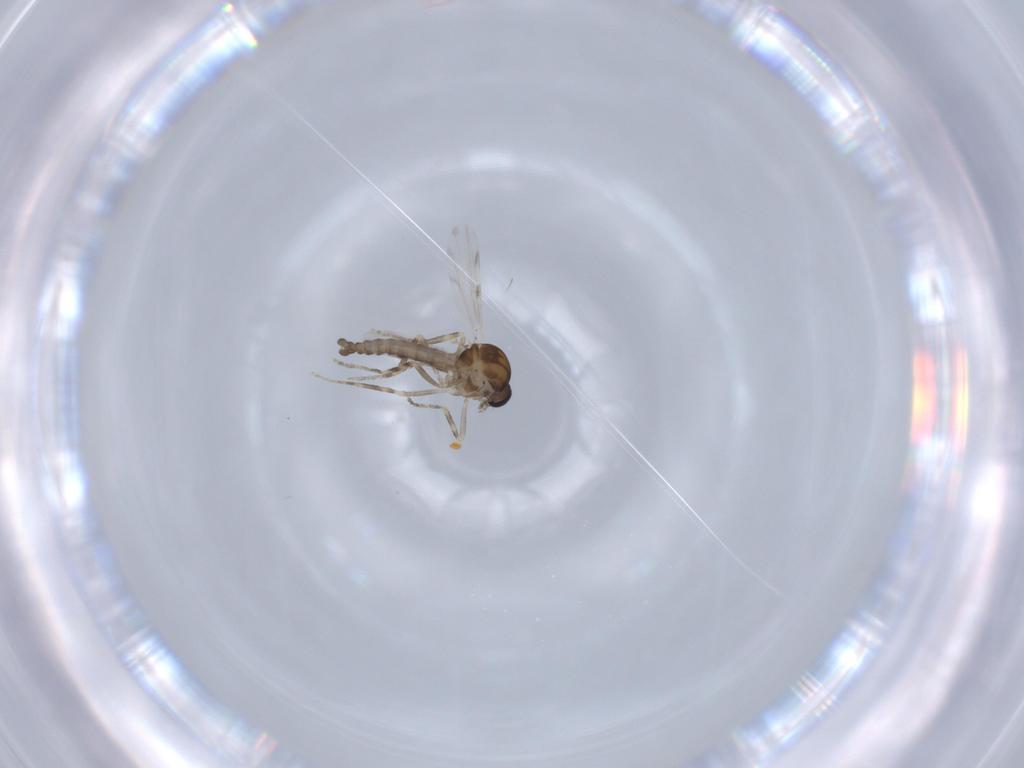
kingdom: Animalia
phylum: Arthropoda
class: Insecta
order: Diptera
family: Ceratopogonidae
